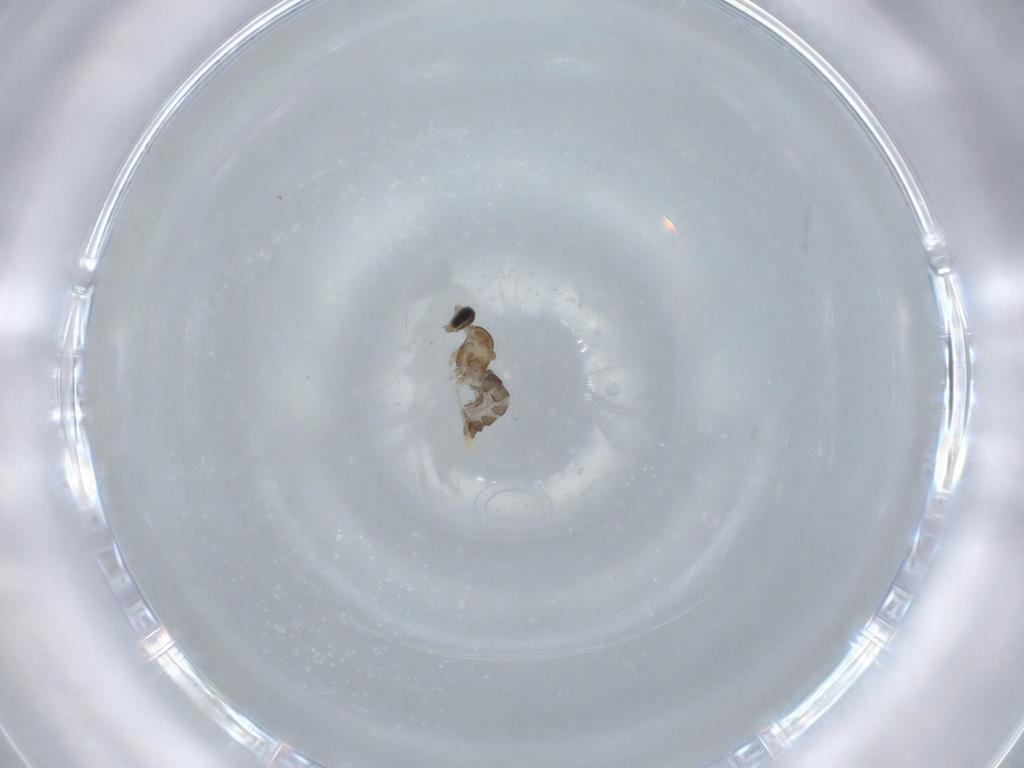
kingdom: Animalia
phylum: Arthropoda
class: Insecta
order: Diptera
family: Cecidomyiidae
